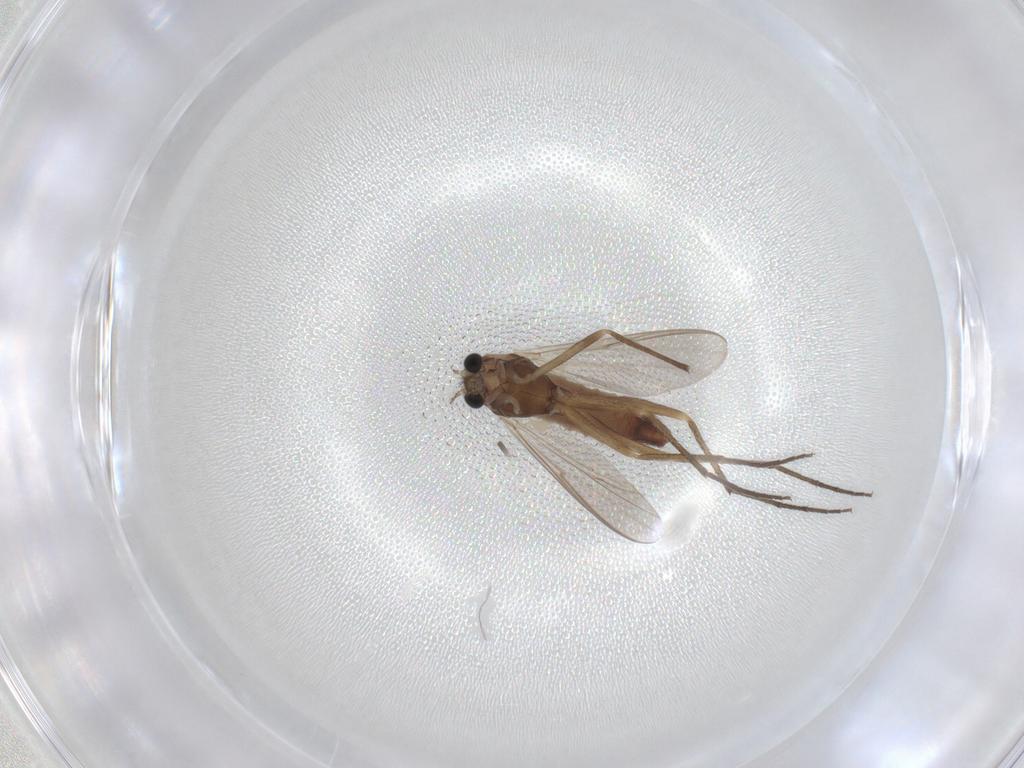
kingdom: Animalia
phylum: Arthropoda
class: Insecta
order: Diptera
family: Chironomidae
